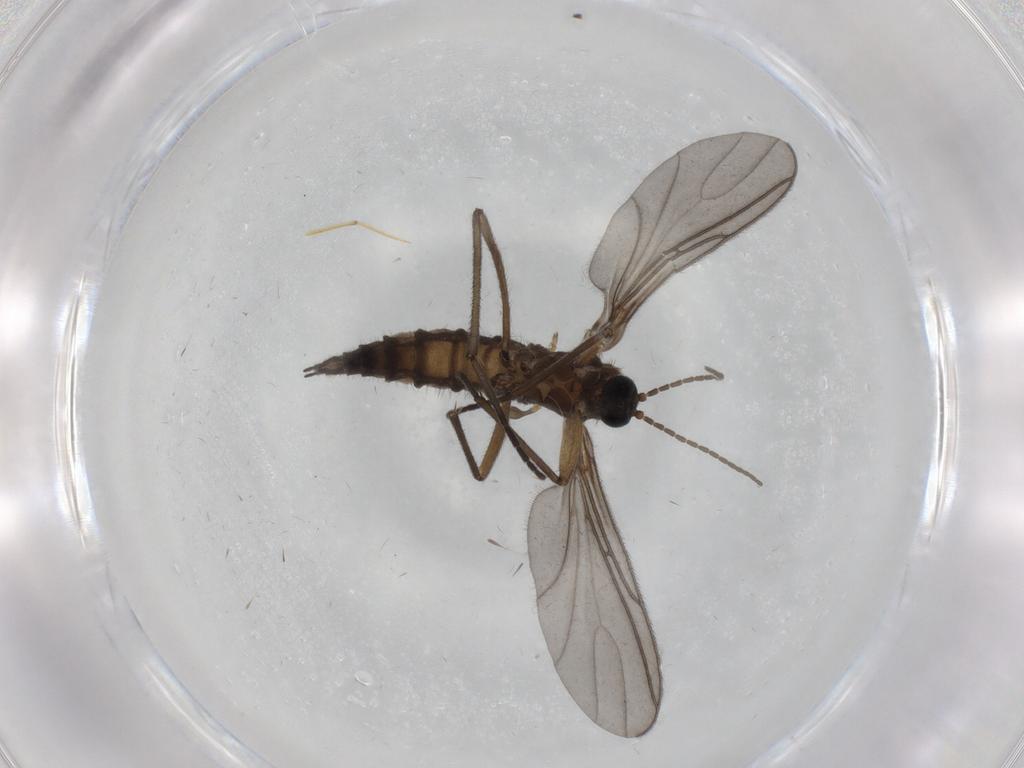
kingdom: Animalia
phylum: Arthropoda
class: Insecta
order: Diptera
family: Sciaridae
